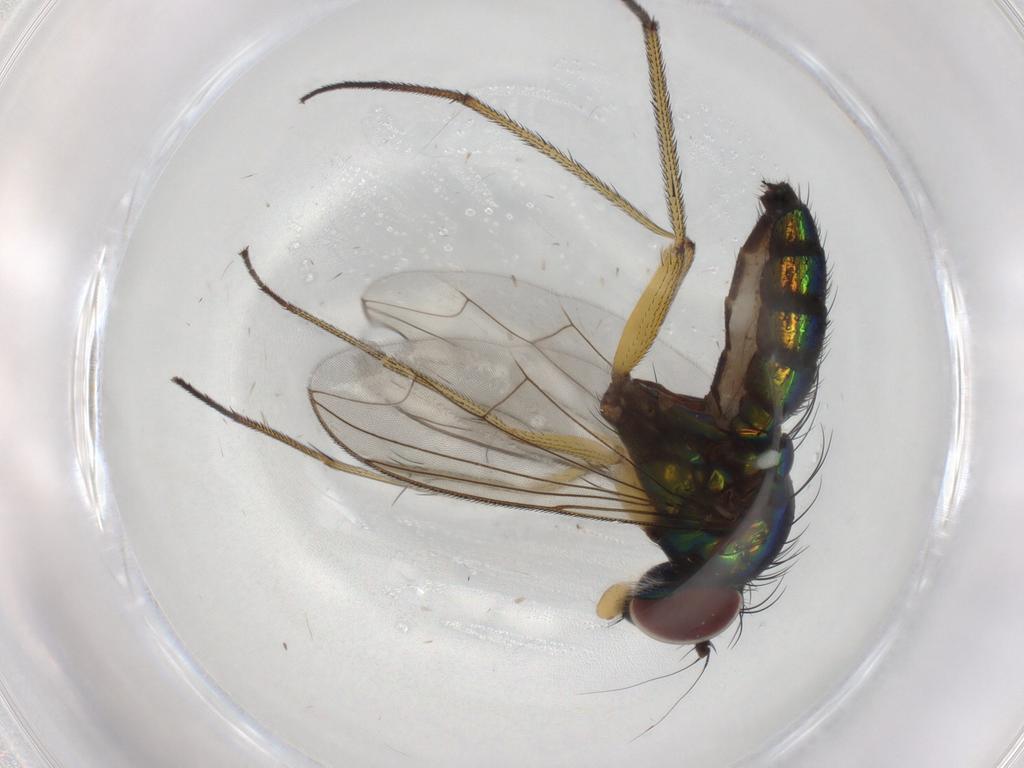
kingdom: Animalia
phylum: Arthropoda
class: Insecta
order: Diptera
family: Dolichopodidae
